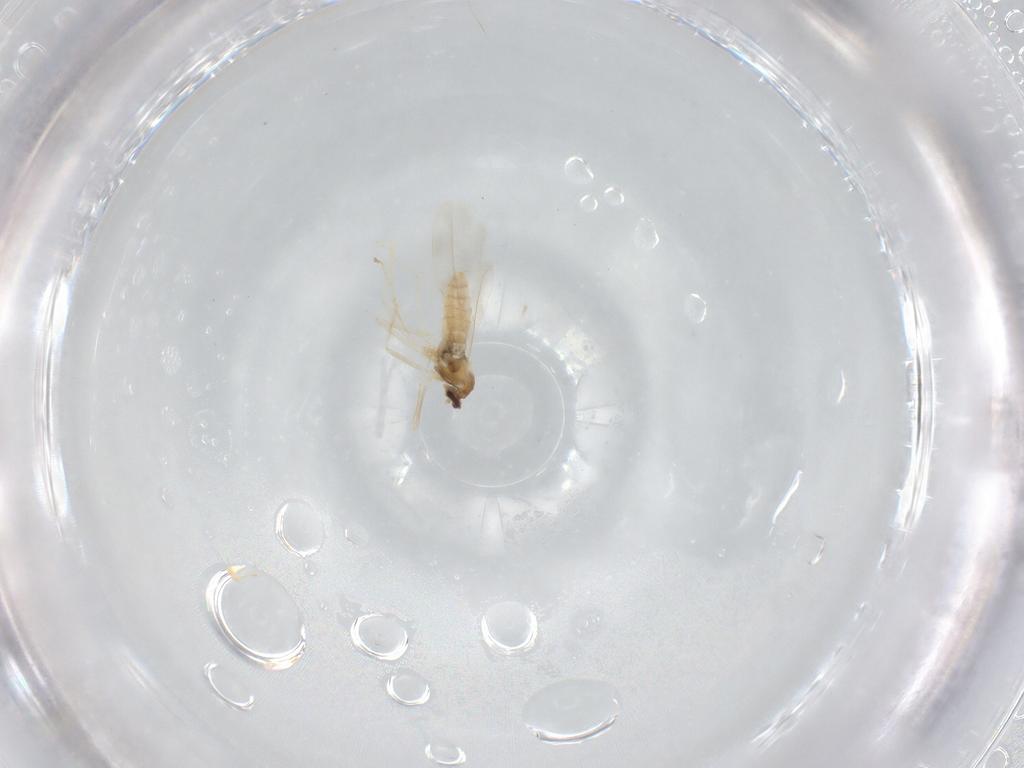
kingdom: Animalia
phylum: Arthropoda
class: Insecta
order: Diptera
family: Cecidomyiidae
